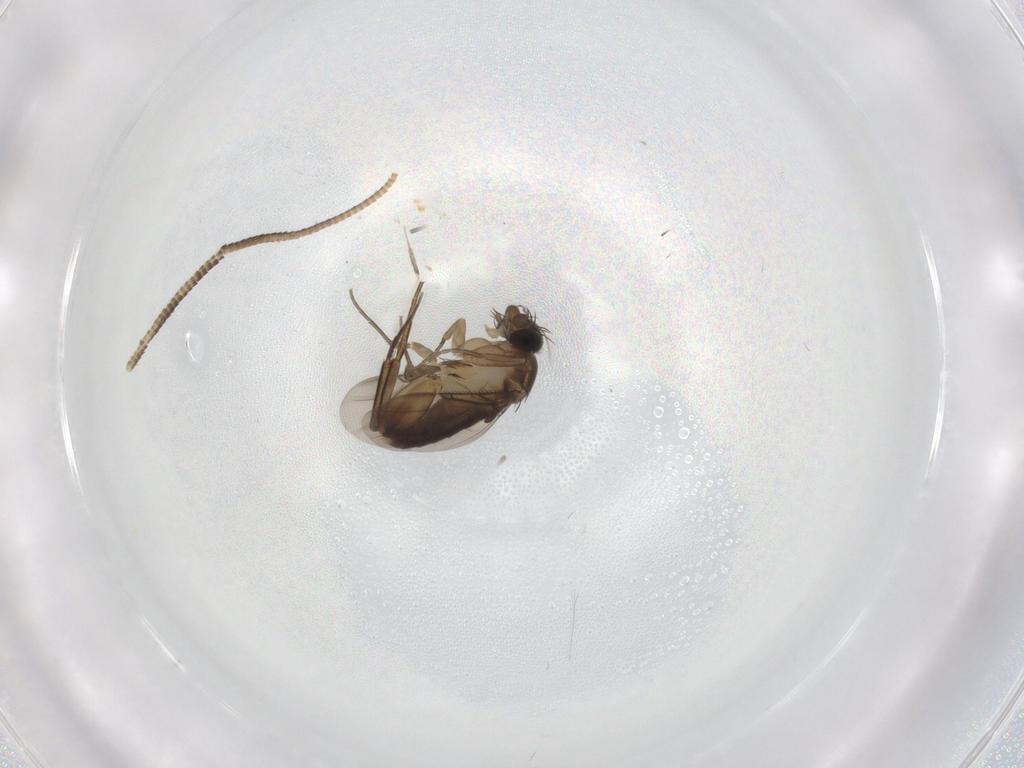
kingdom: Animalia
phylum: Arthropoda
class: Insecta
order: Diptera
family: Phoridae
